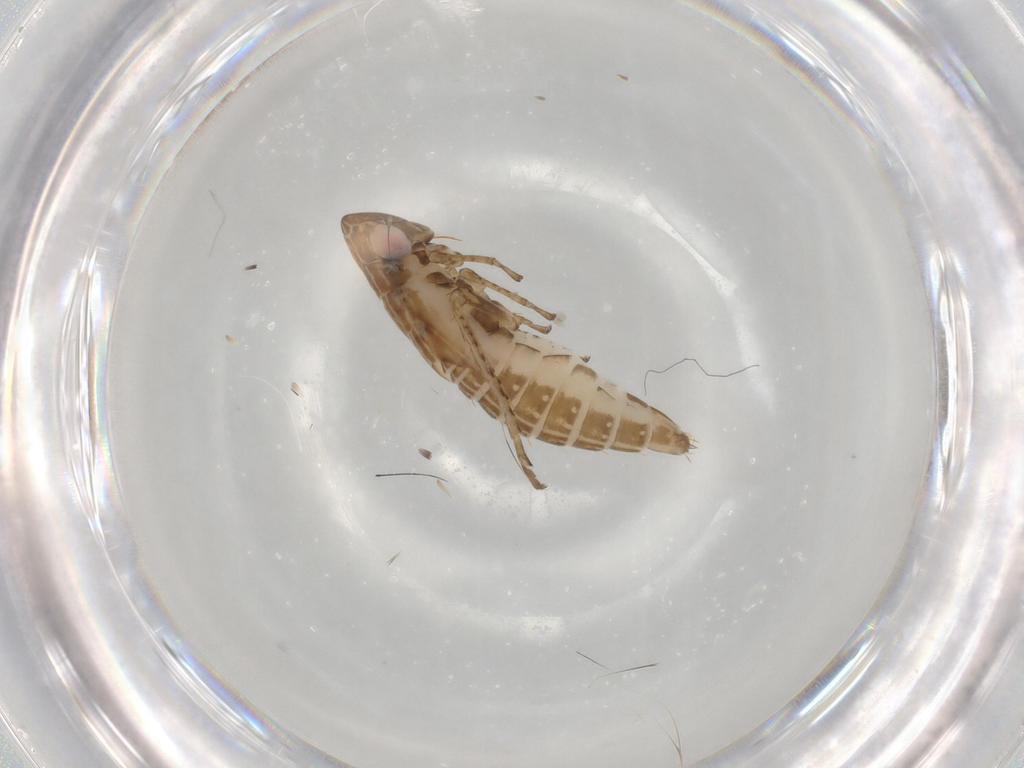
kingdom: Animalia
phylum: Arthropoda
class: Insecta
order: Hemiptera
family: Cicadellidae
